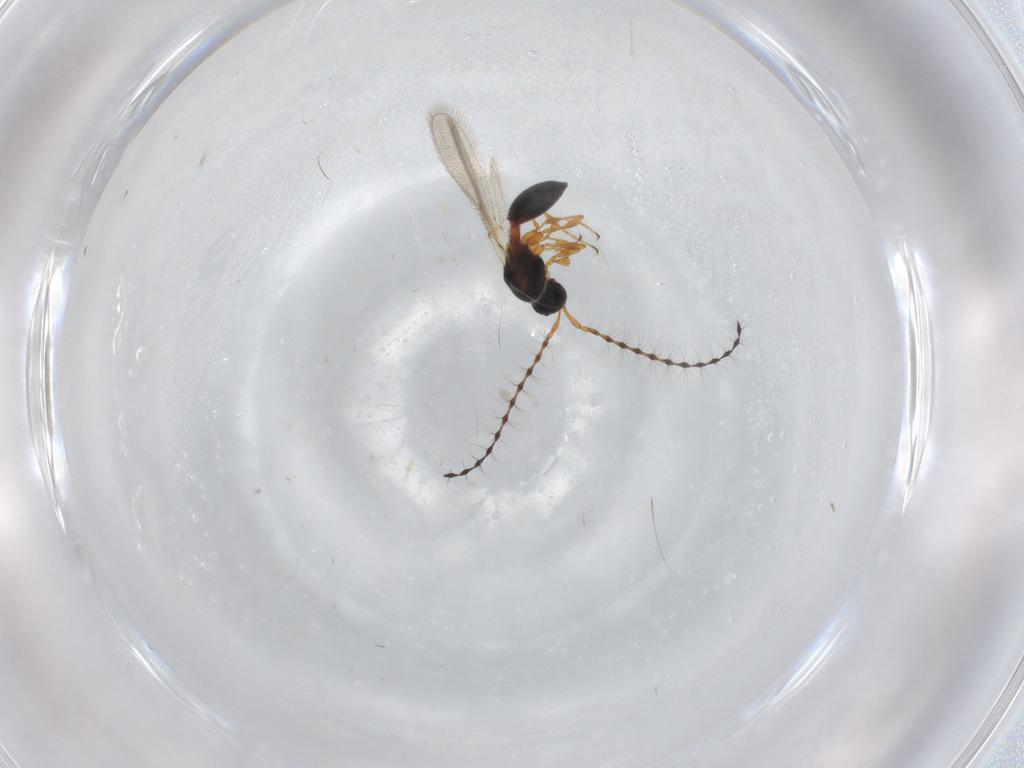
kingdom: Animalia
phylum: Arthropoda
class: Insecta
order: Hymenoptera
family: Diapriidae
